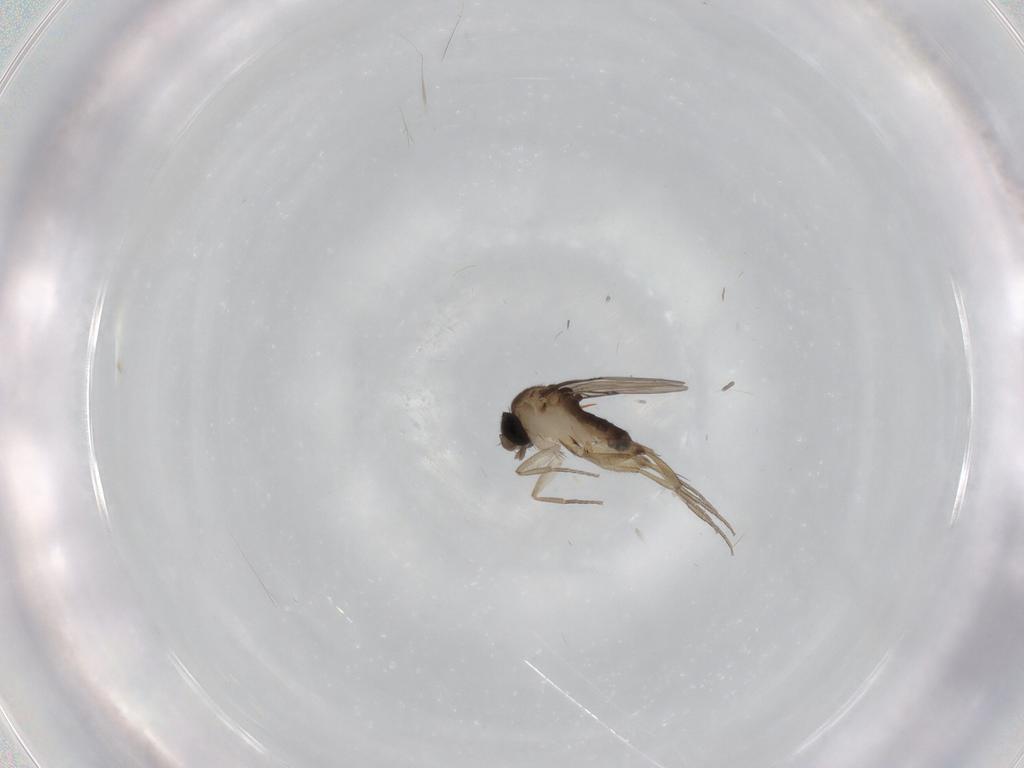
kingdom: Animalia
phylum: Arthropoda
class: Insecta
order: Diptera
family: Phoridae
